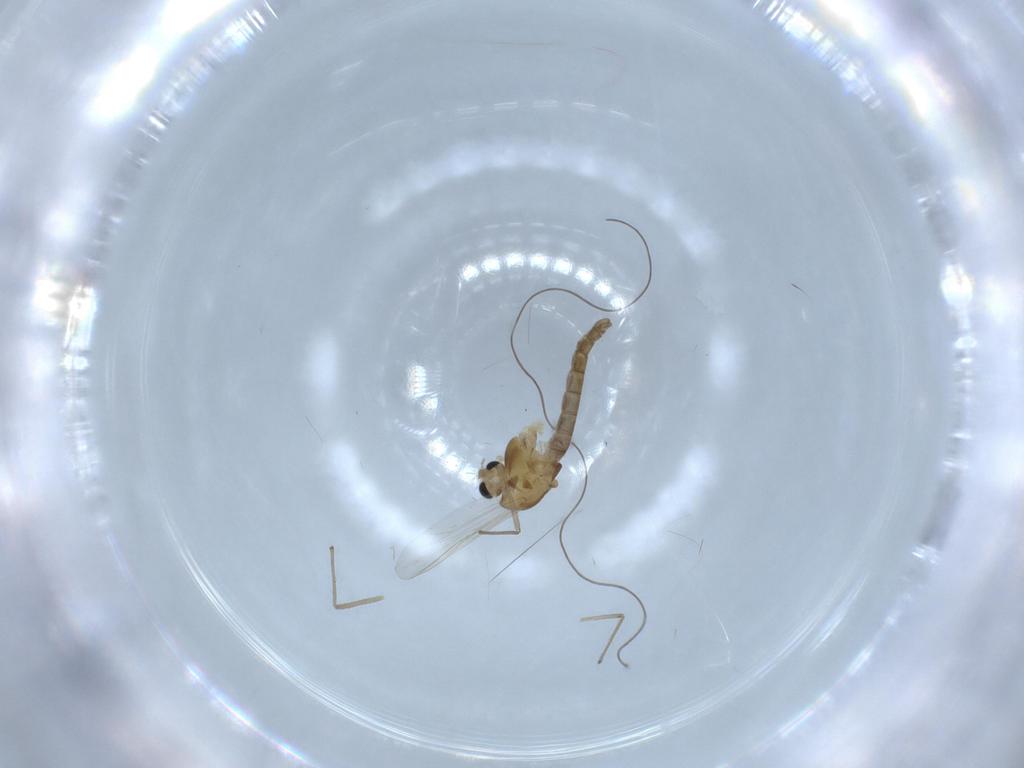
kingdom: Animalia
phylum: Arthropoda
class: Insecta
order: Diptera
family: Chironomidae
